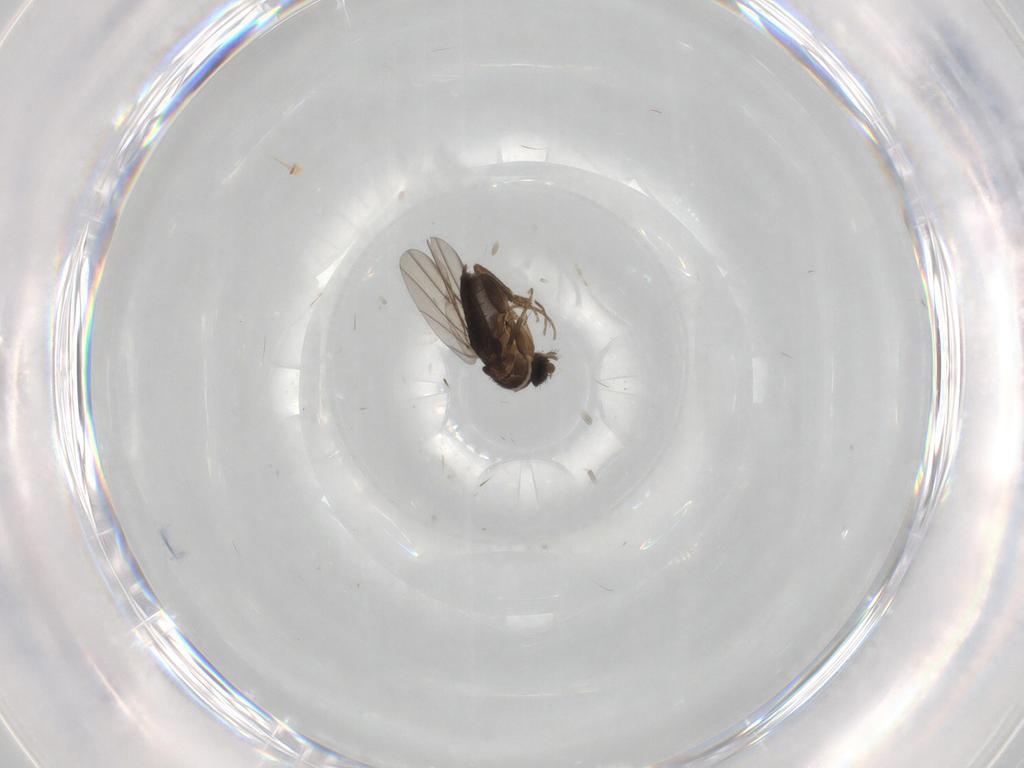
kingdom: Animalia
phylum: Arthropoda
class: Insecta
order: Diptera
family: Phoridae
